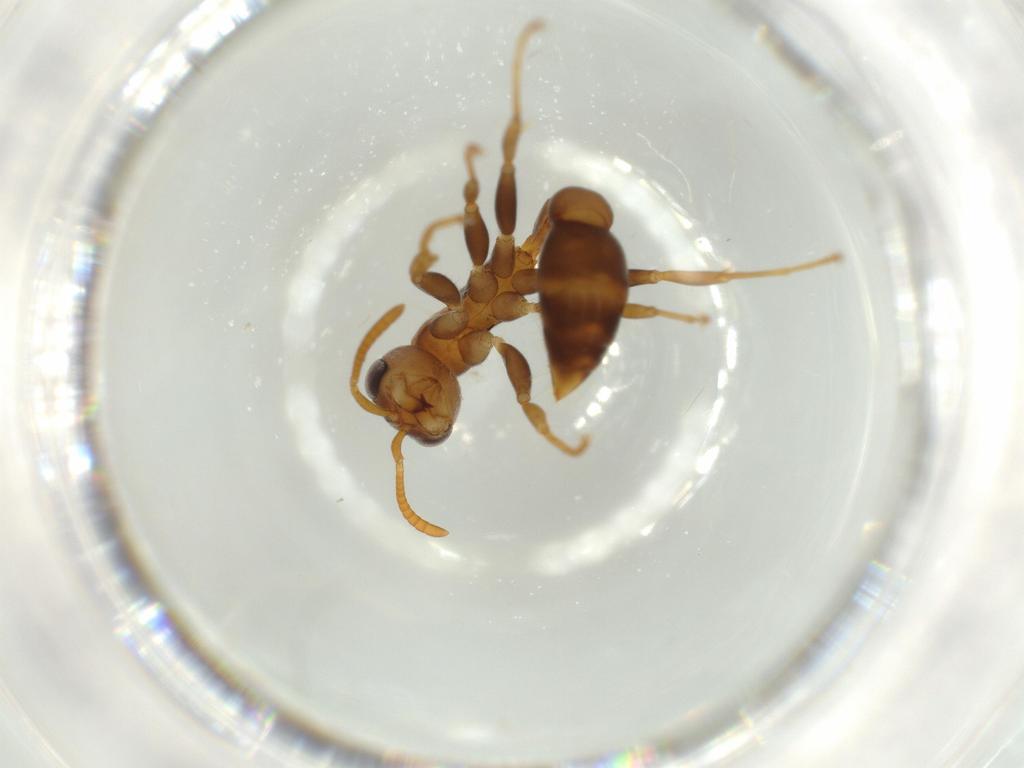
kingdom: Animalia
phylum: Arthropoda
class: Insecta
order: Hymenoptera
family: Formicidae
